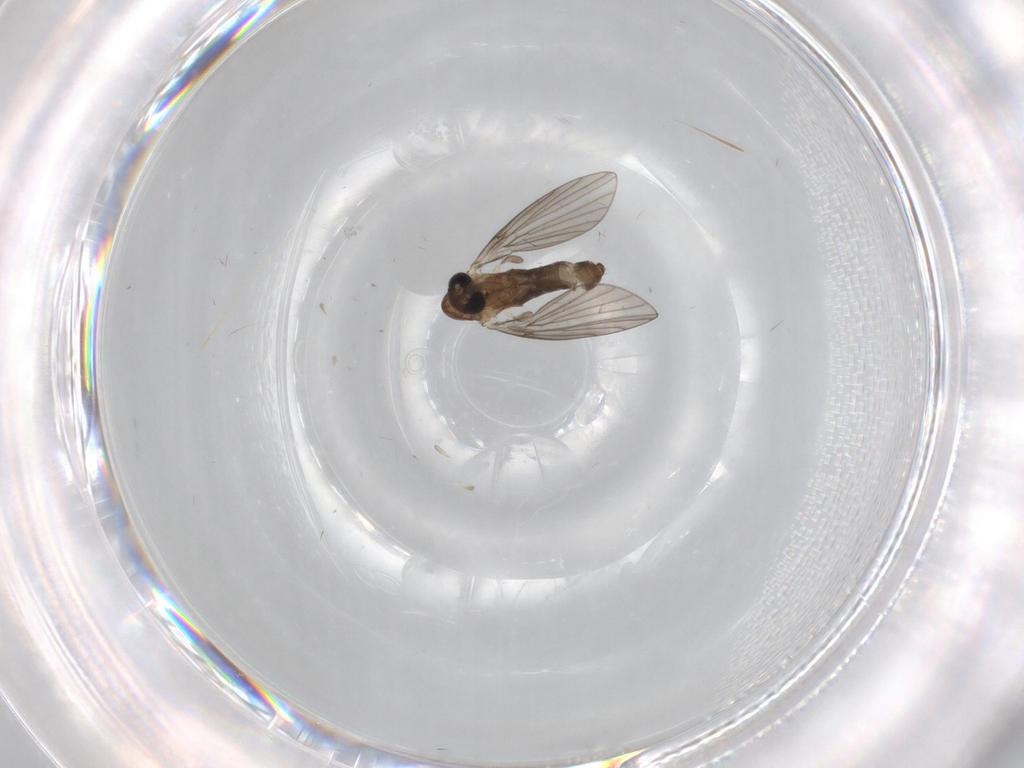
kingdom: Animalia
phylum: Arthropoda
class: Insecta
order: Diptera
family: Psychodidae
